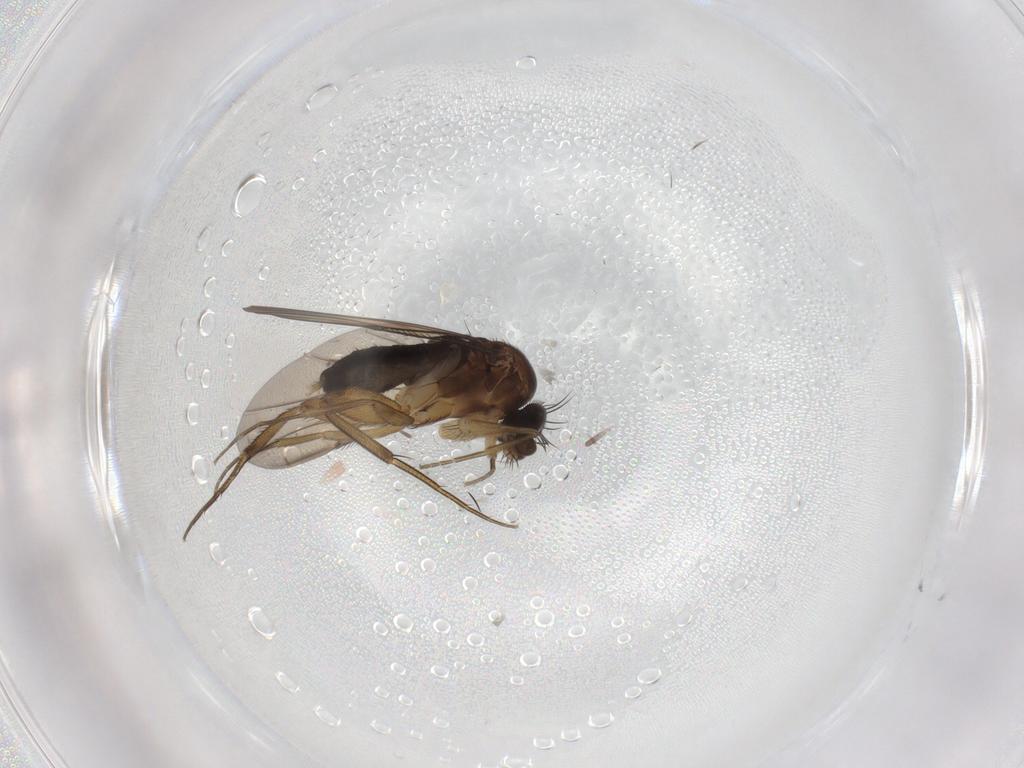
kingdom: Animalia
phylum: Arthropoda
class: Insecta
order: Diptera
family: Phoridae
